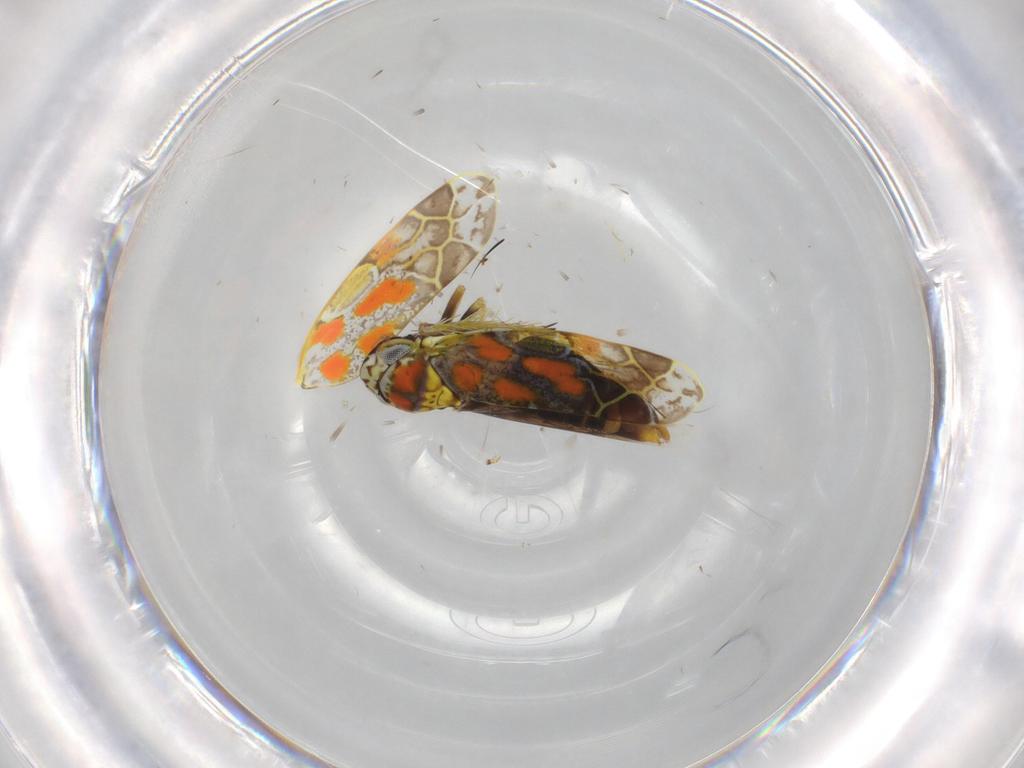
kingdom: Animalia
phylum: Arthropoda
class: Insecta
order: Hemiptera
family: Cicadellidae
